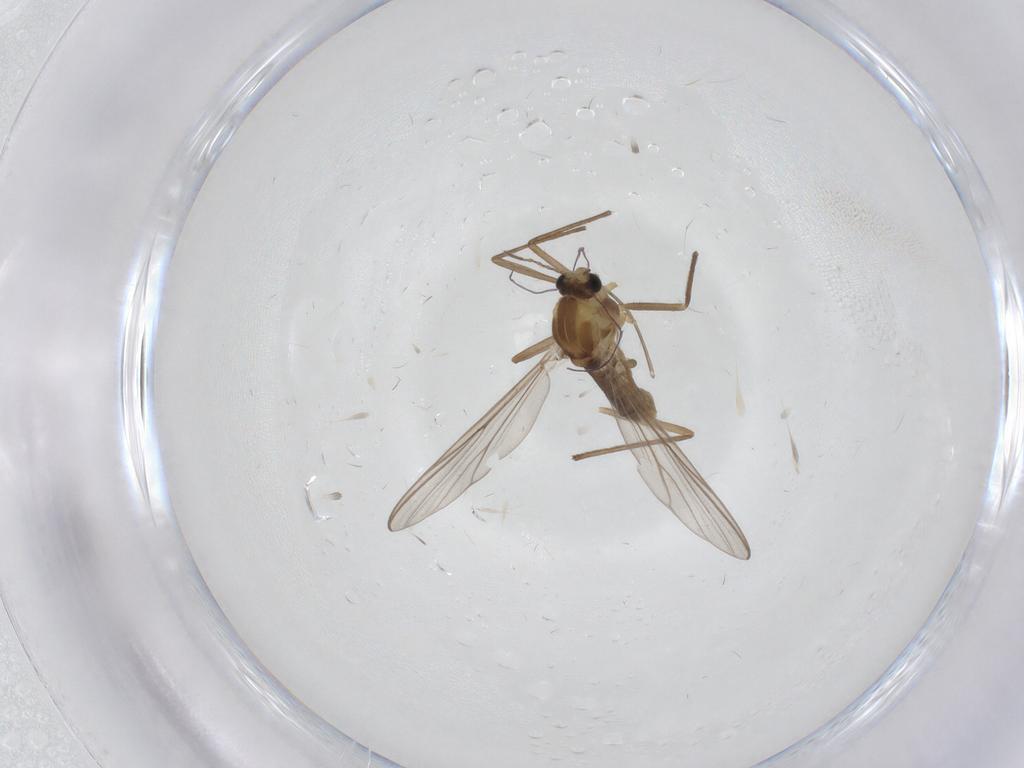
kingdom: Animalia
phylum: Arthropoda
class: Insecta
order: Diptera
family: Chironomidae
